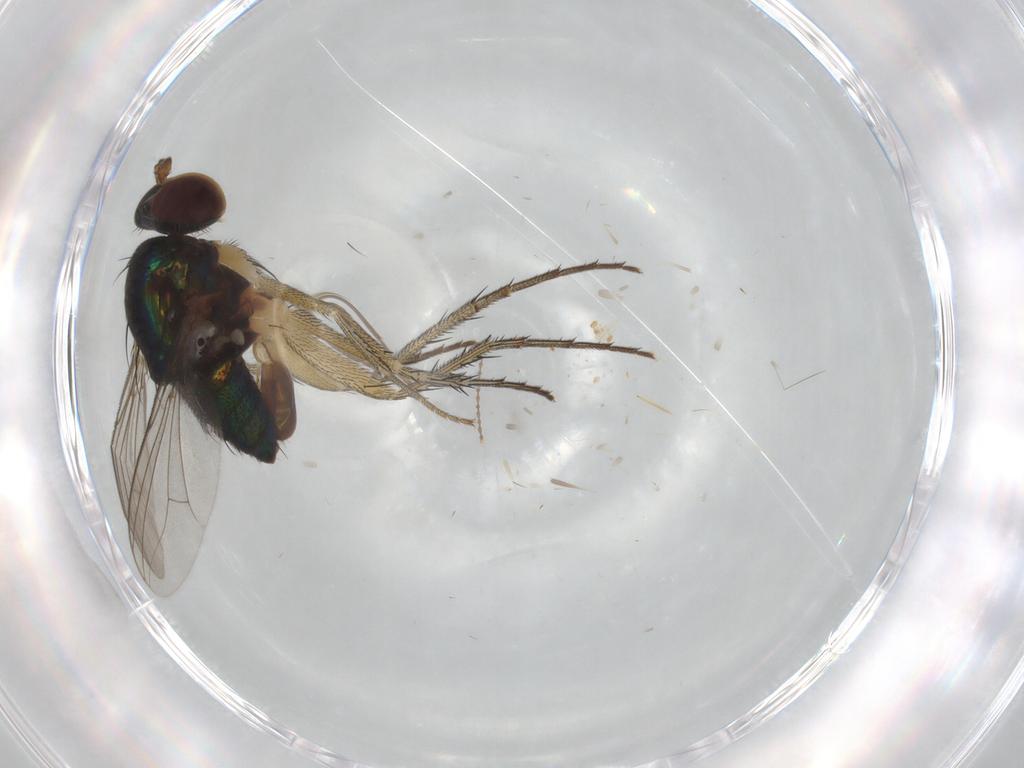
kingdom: Animalia
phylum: Arthropoda
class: Insecta
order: Diptera
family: Dolichopodidae
